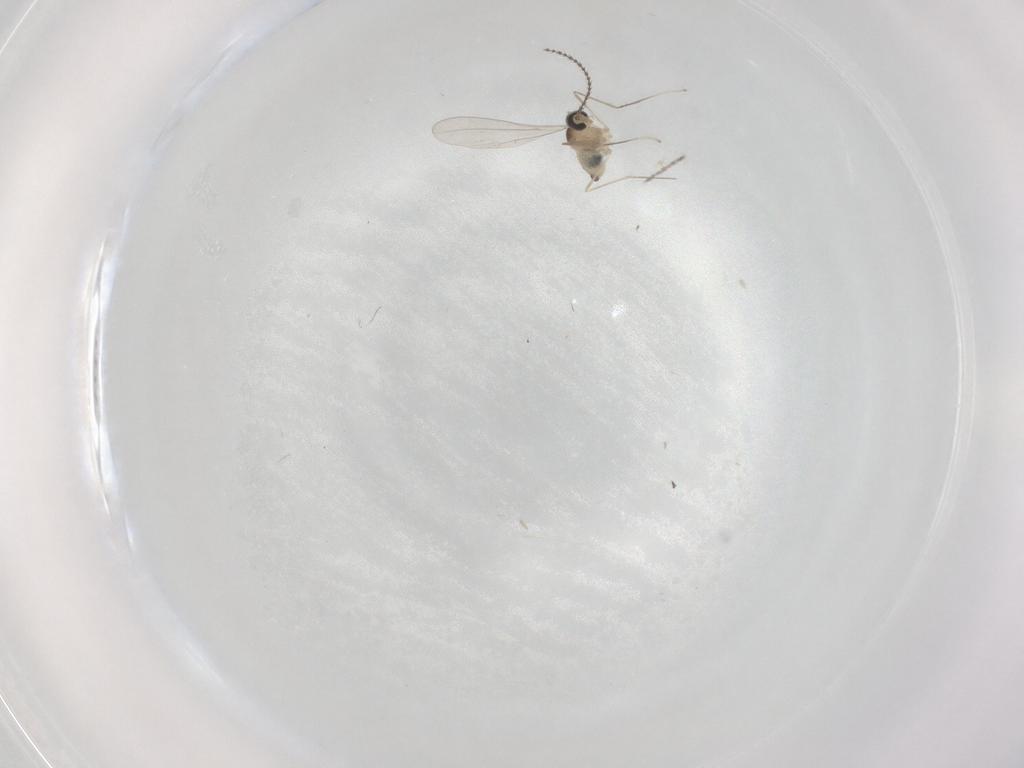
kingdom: Animalia
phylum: Arthropoda
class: Insecta
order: Diptera
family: Cecidomyiidae
